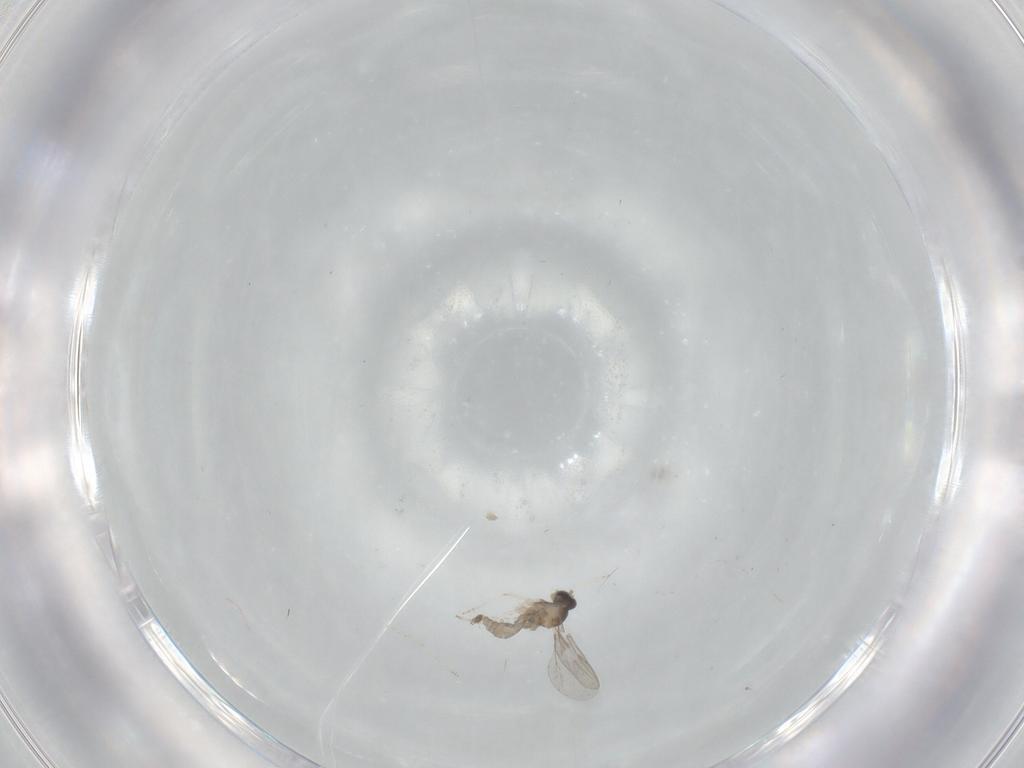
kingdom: Animalia
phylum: Arthropoda
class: Insecta
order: Diptera
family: Cecidomyiidae
